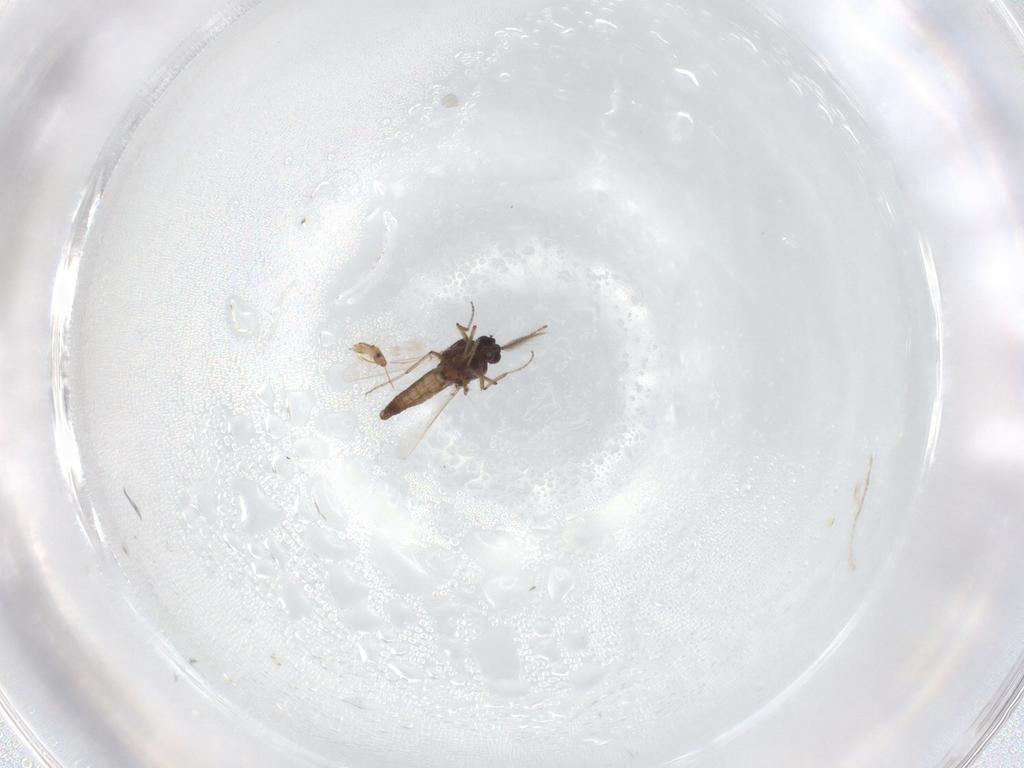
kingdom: Animalia
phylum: Arthropoda
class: Insecta
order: Diptera
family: Ceratopogonidae
